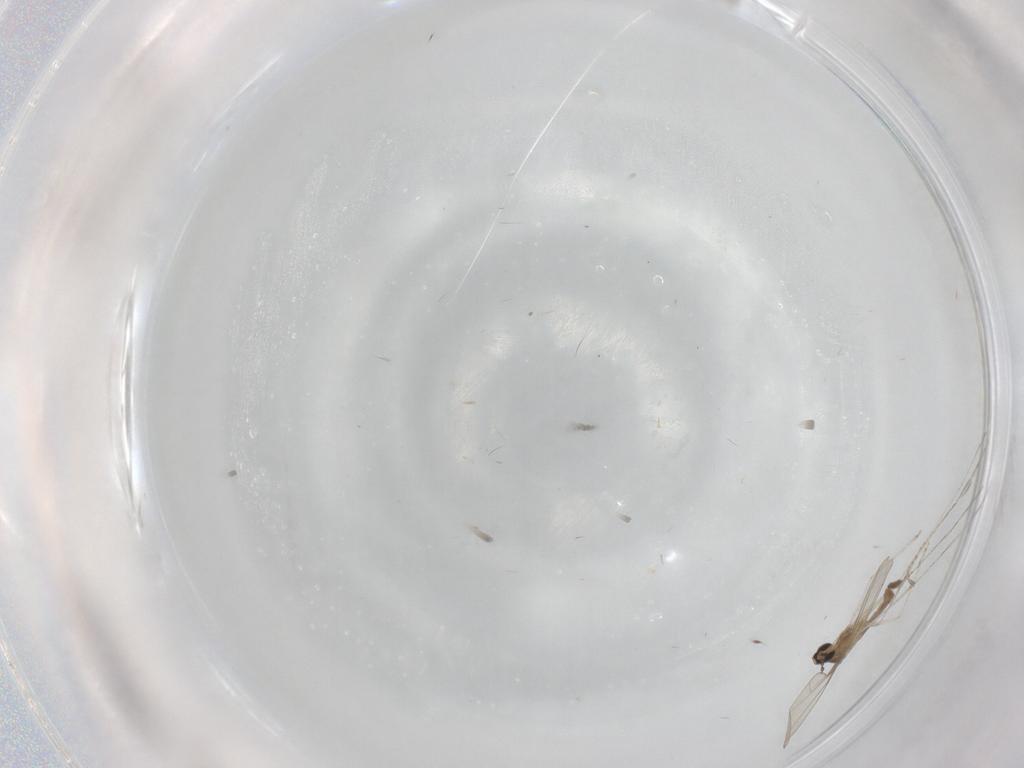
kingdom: Animalia
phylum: Arthropoda
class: Insecta
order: Diptera
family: Cecidomyiidae
